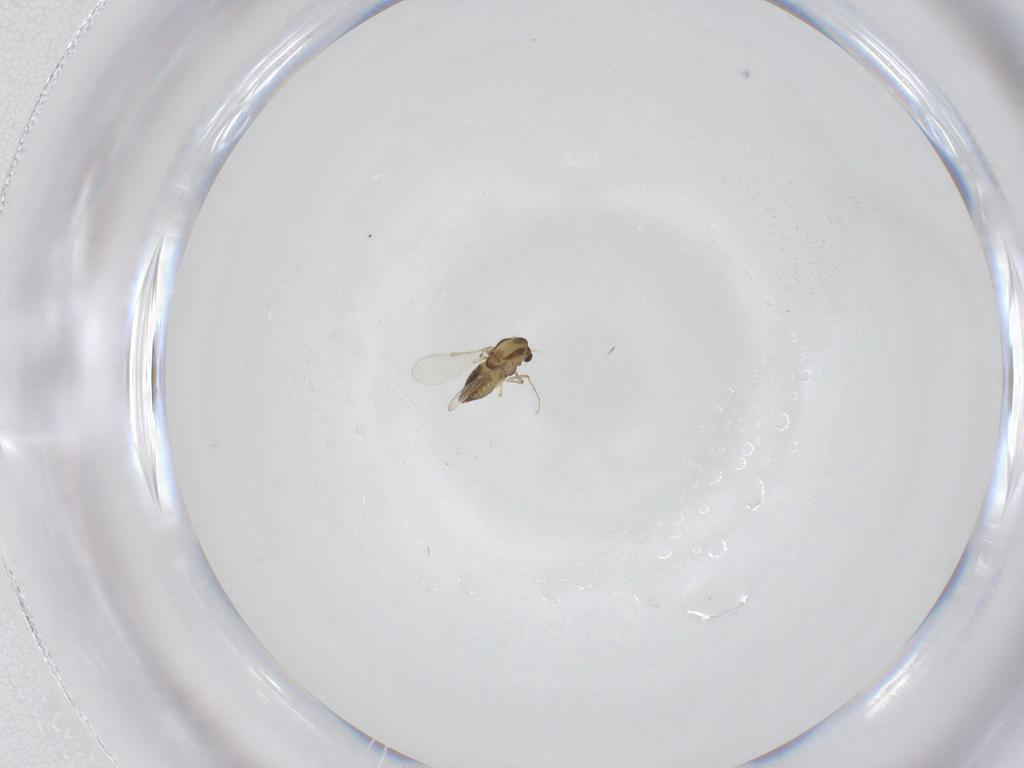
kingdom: Animalia
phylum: Arthropoda
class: Insecta
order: Diptera
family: Chironomidae
